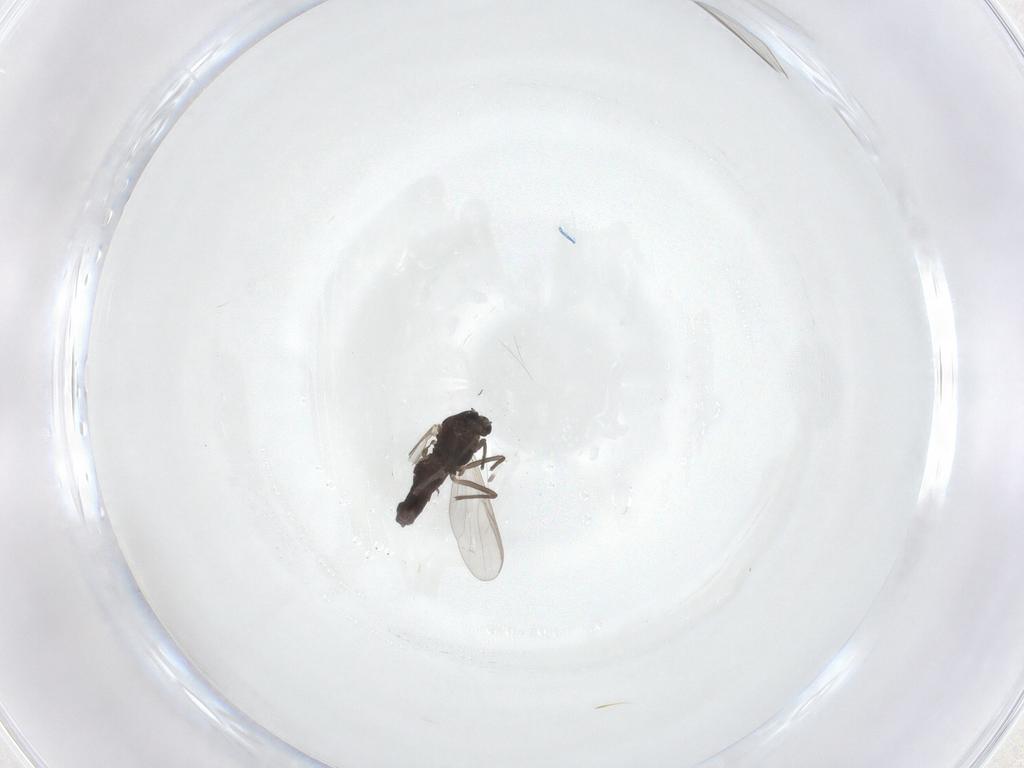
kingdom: Animalia
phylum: Arthropoda
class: Insecta
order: Diptera
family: Chironomidae
